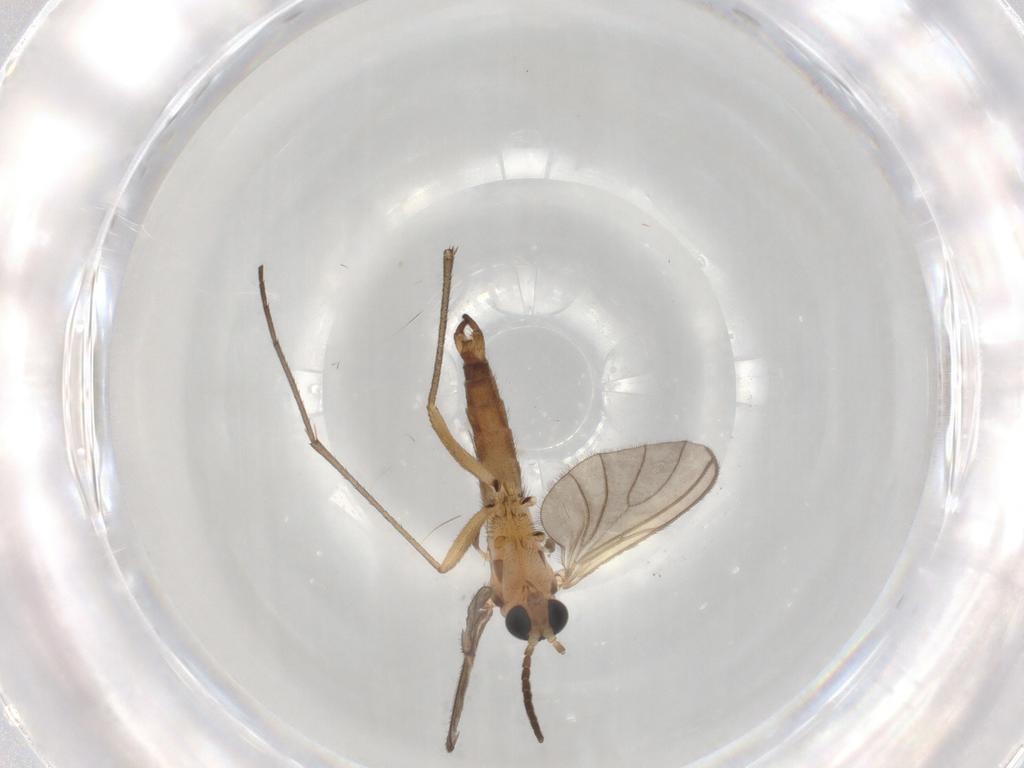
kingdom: Animalia
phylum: Arthropoda
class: Insecta
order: Diptera
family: Sciaridae
